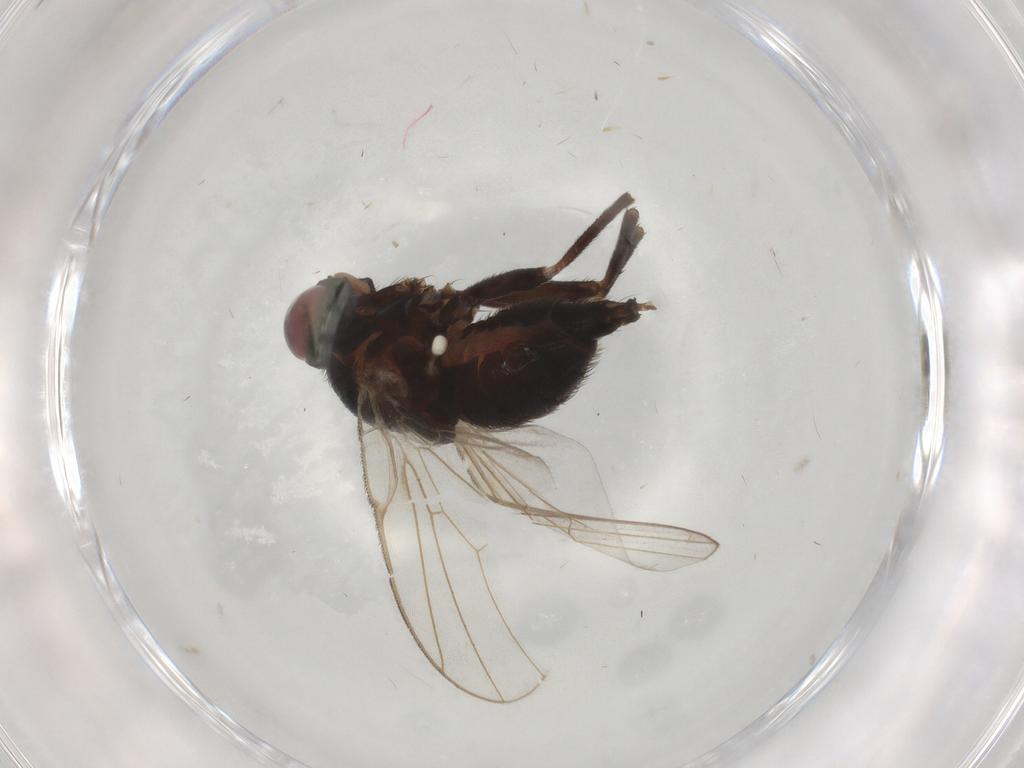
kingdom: Animalia
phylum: Arthropoda
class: Insecta
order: Diptera
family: Agromyzidae
